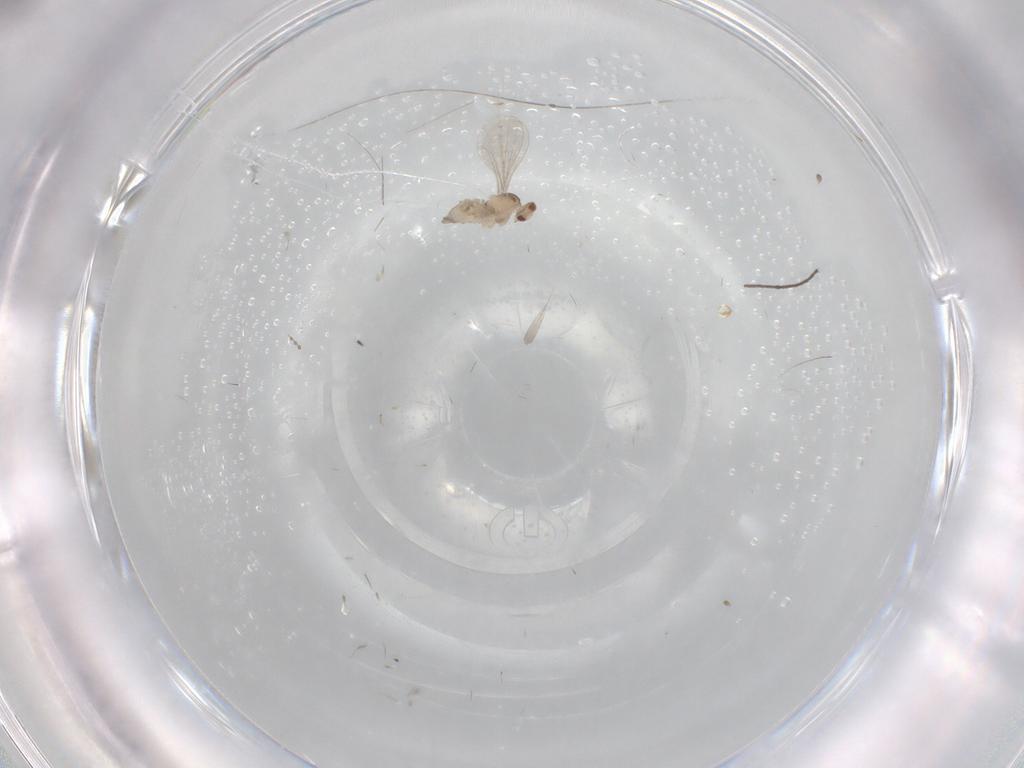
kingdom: Animalia
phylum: Arthropoda
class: Insecta
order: Diptera
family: Cecidomyiidae
